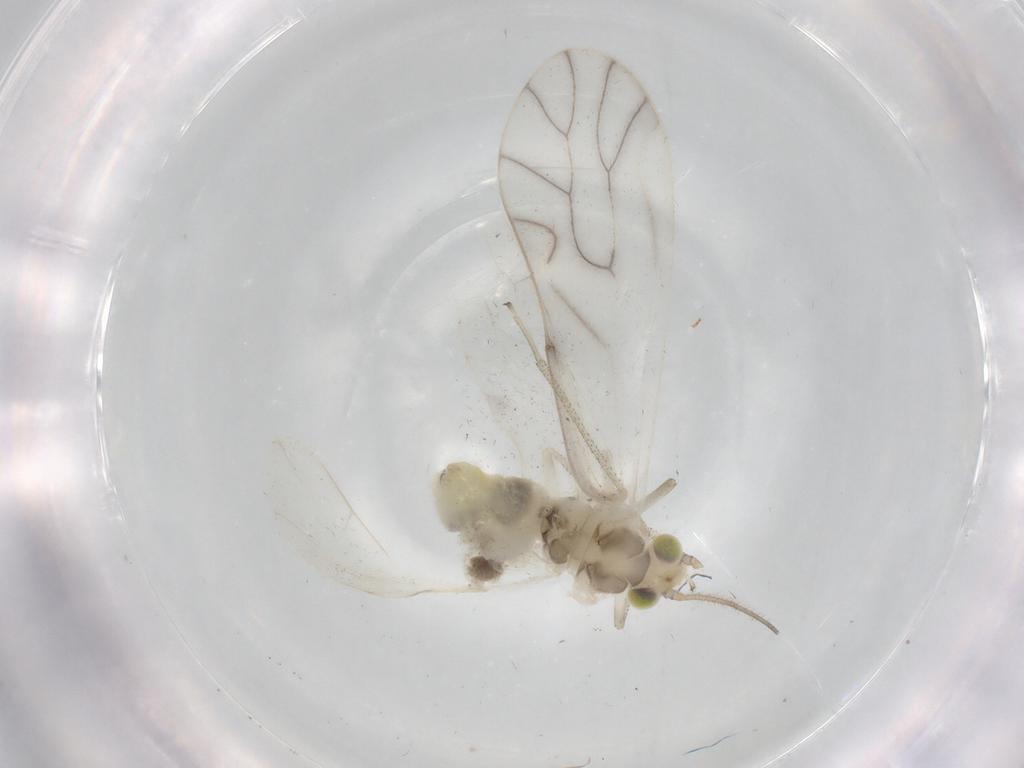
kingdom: Animalia
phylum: Arthropoda
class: Insecta
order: Psocodea
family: Caeciliusidae
